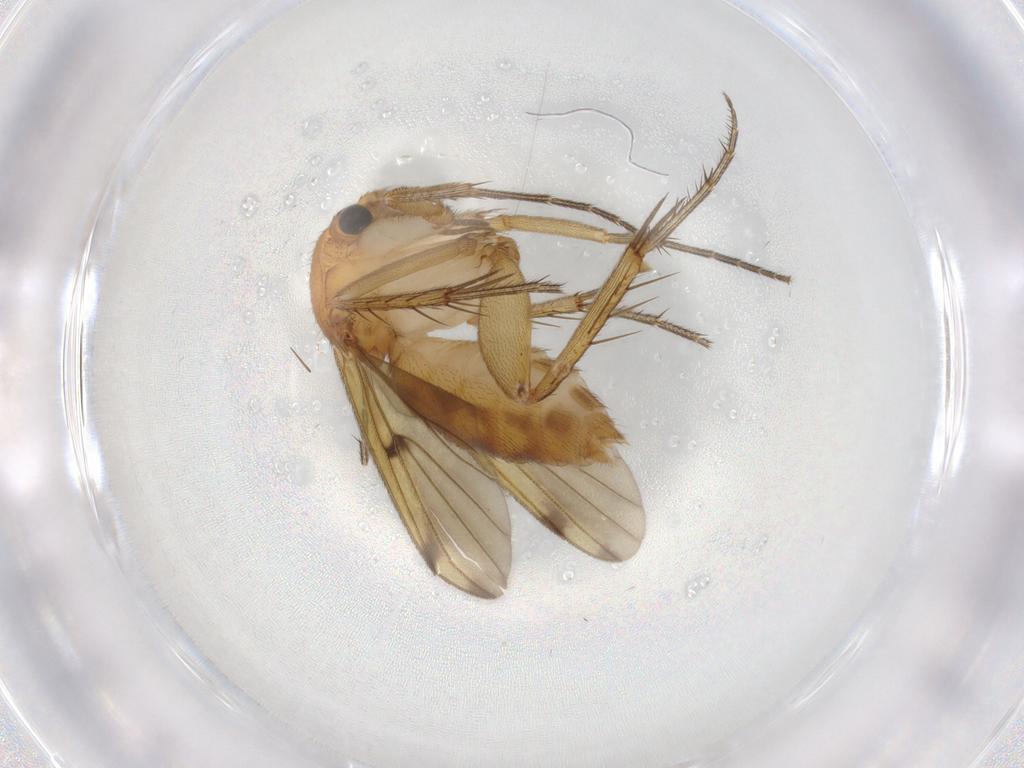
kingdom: Animalia
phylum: Arthropoda
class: Insecta
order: Diptera
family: Mycetophilidae
